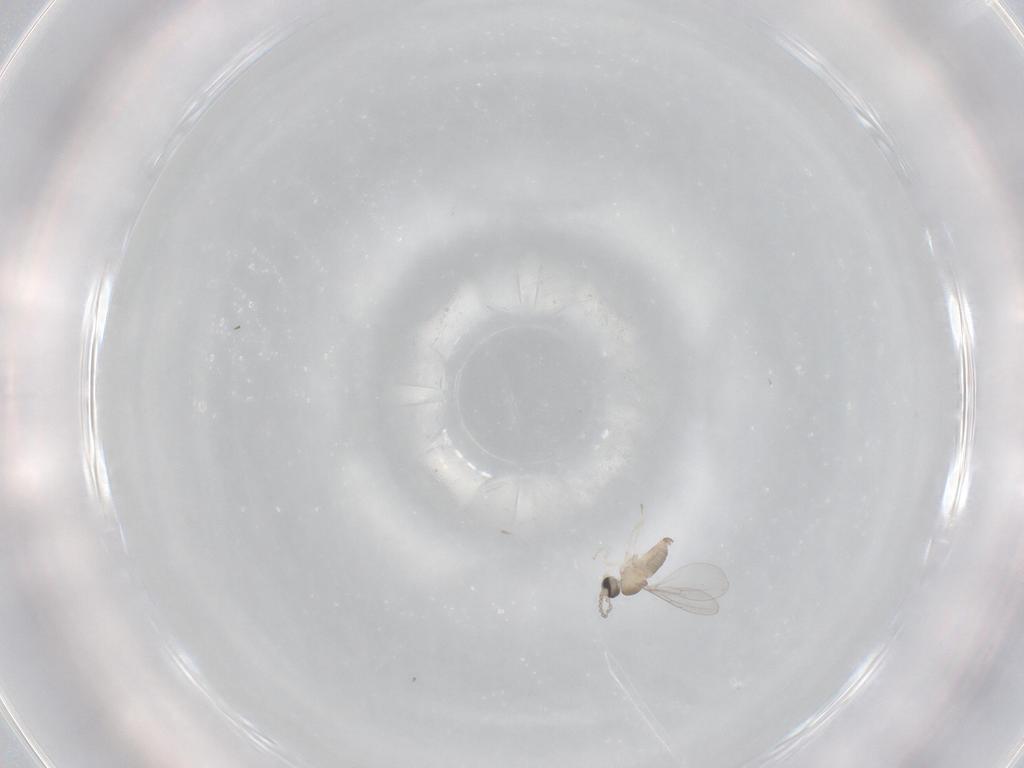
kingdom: Animalia
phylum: Arthropoda
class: Insecta
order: Diptera
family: Cecidomyiidae
